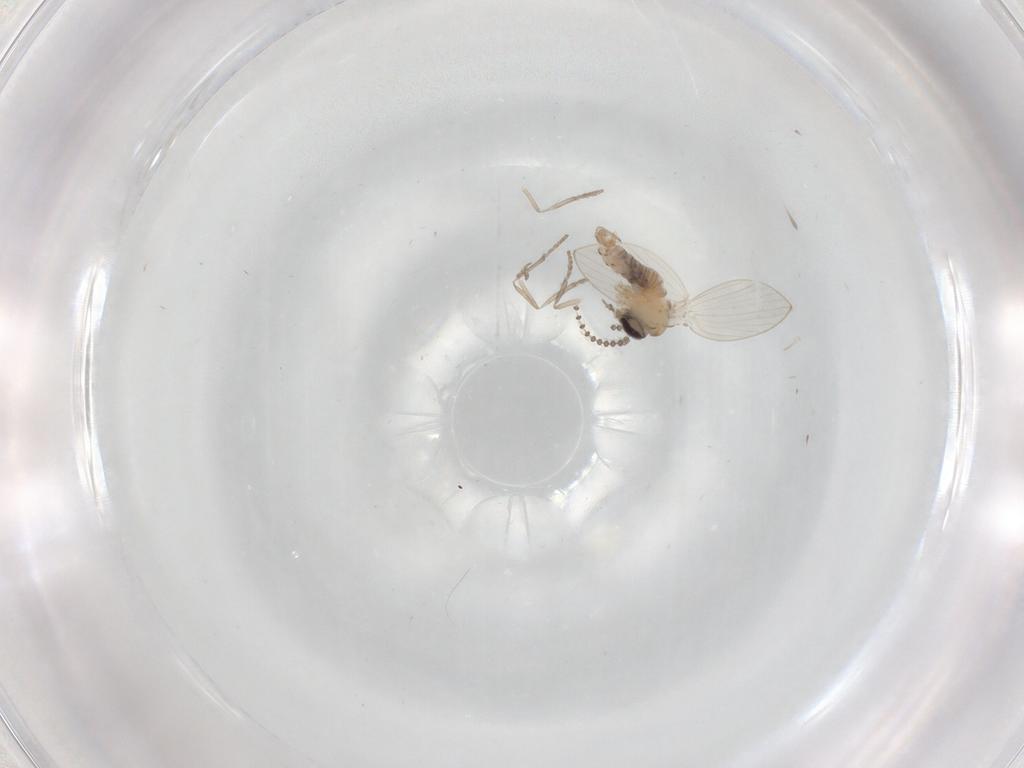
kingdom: Animalia
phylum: Arthropoda
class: Insecta
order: Diptera
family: Psychodidae
